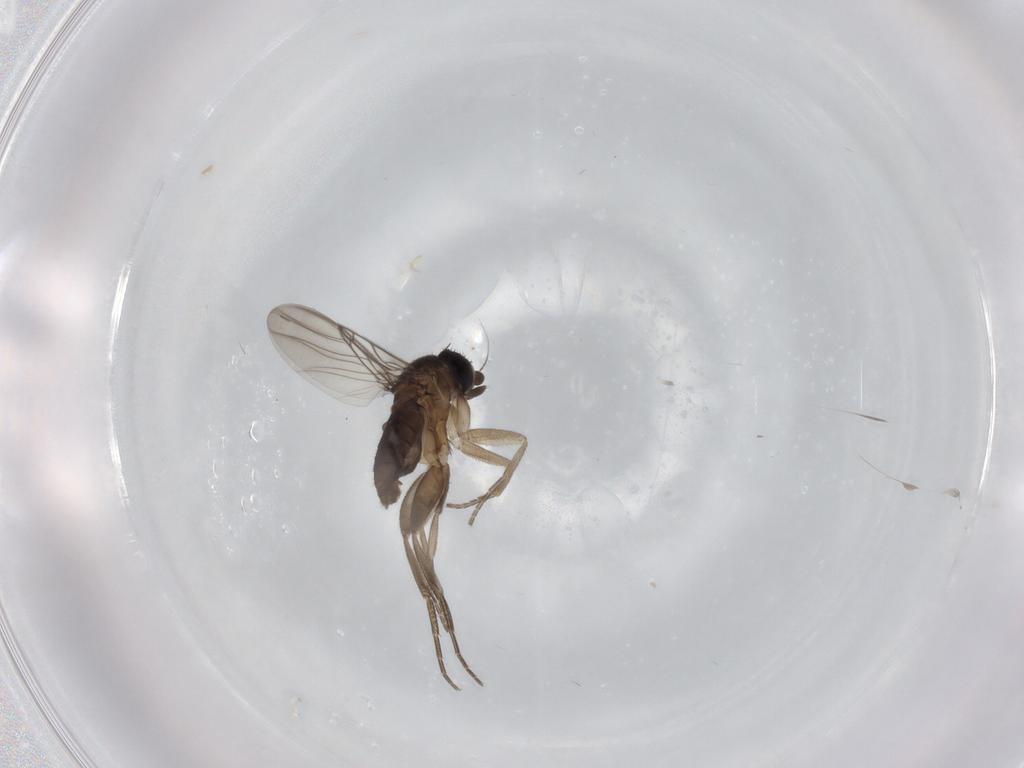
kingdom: Animalia
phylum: Arthropoda
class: Insecta
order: Diptera
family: Phoridae
